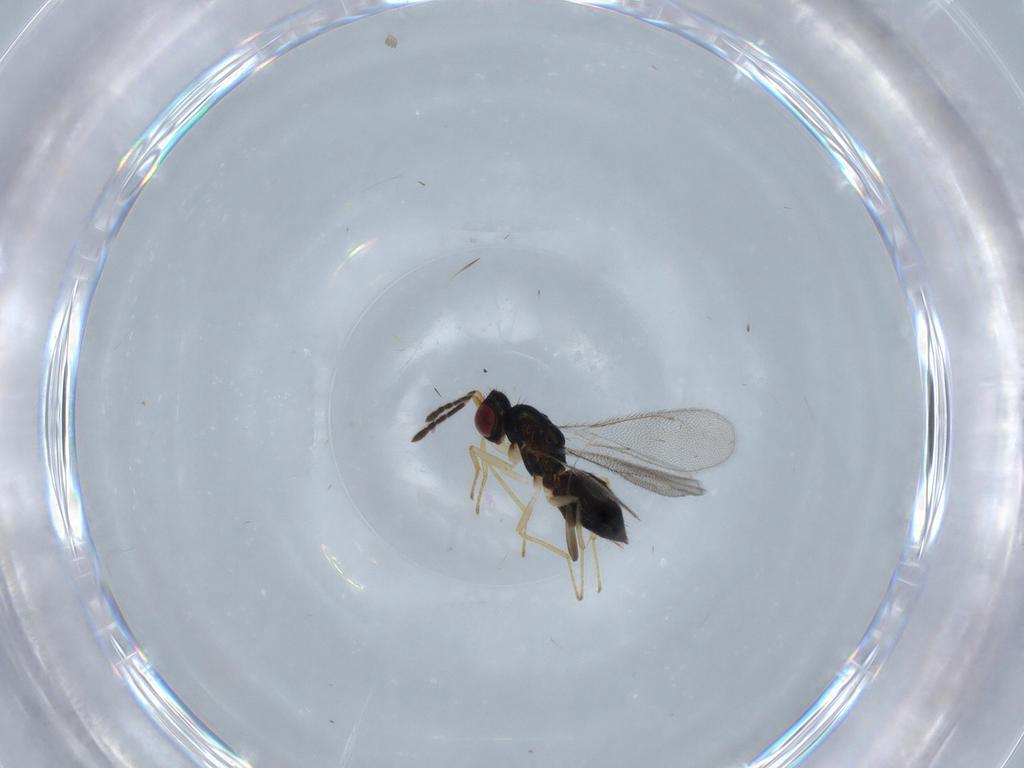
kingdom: Animalia
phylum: Arthropoda
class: Insecta
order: Hymenoptera
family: Eulophidae
